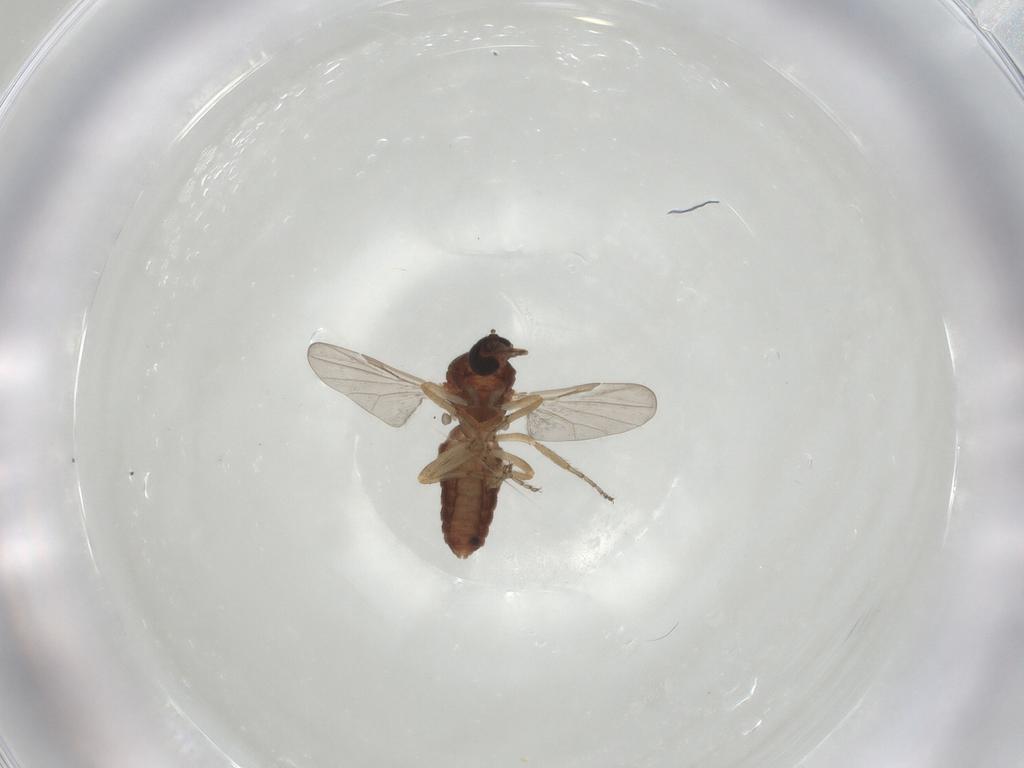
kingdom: Animalia
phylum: Arthropoda
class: Insecta
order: Diptera
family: Ceratopogonidae
